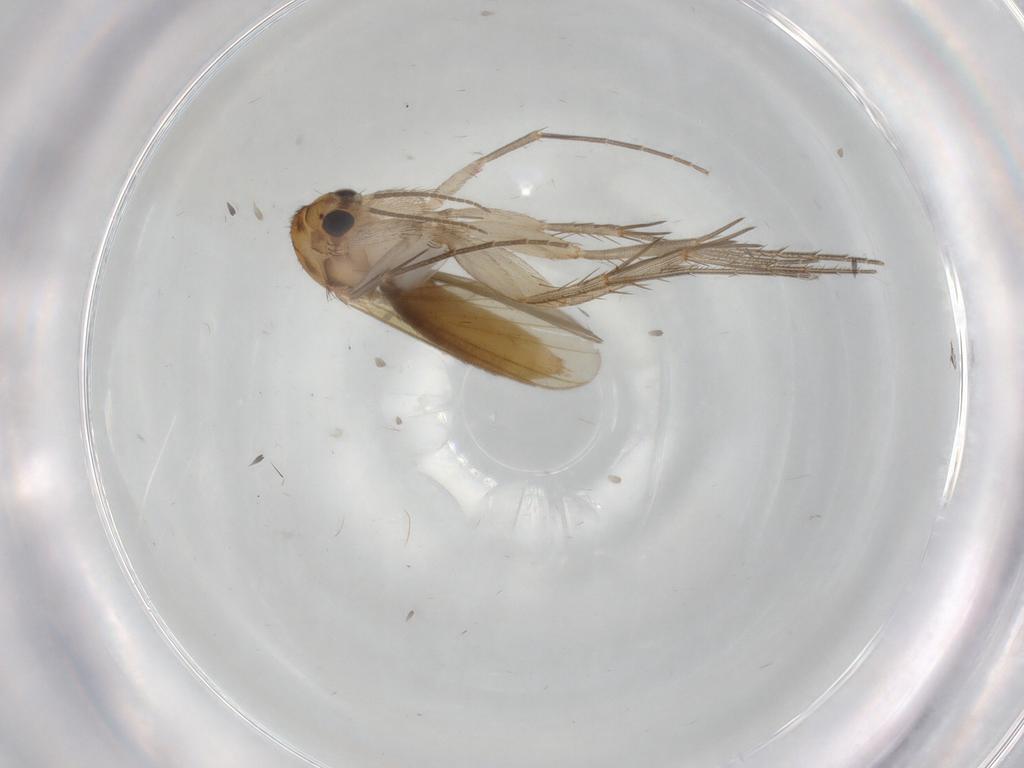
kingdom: Animalia
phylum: Arthropoda
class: Insecta
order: Diptera
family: Mycetophilidae
